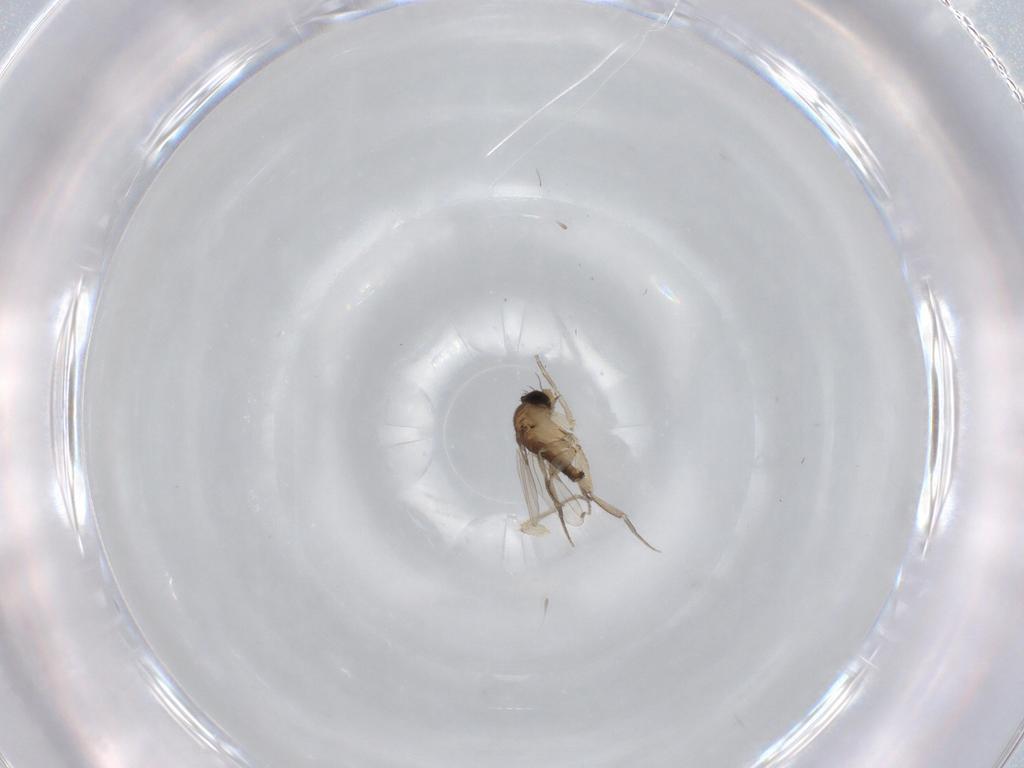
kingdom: Animalia
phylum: Arthropoda
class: Insecta
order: Diptera
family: Phoridae
